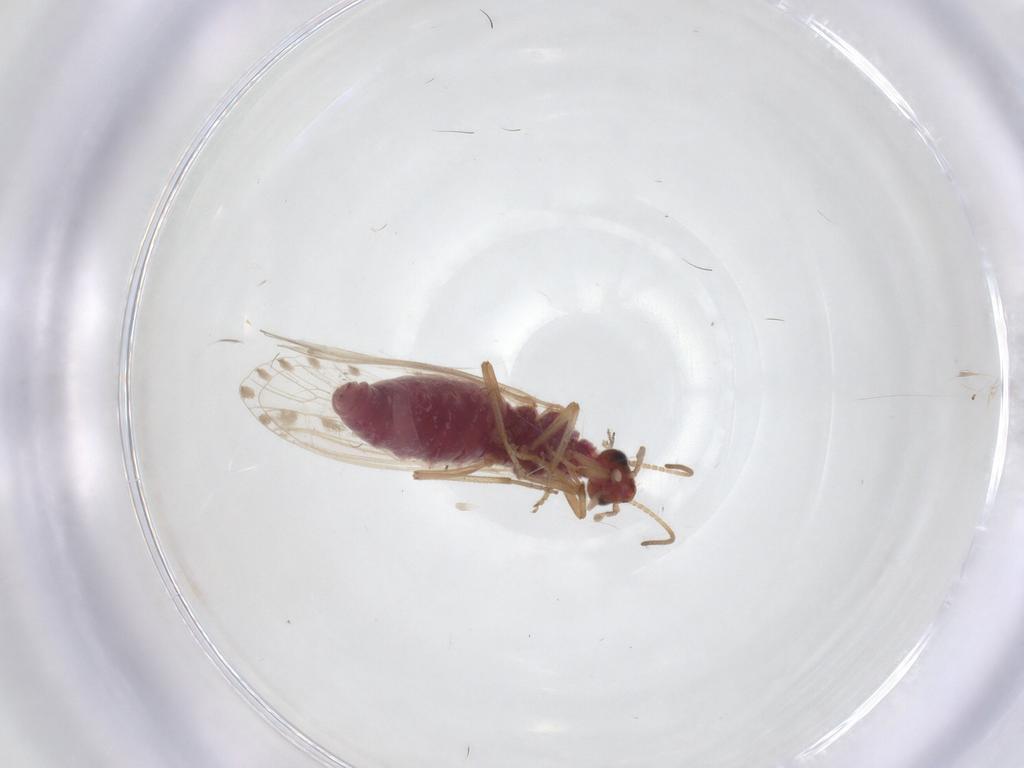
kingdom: Animalia
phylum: Arthropoda
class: Insecta
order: Neuroptera
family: Coniopterygidae
